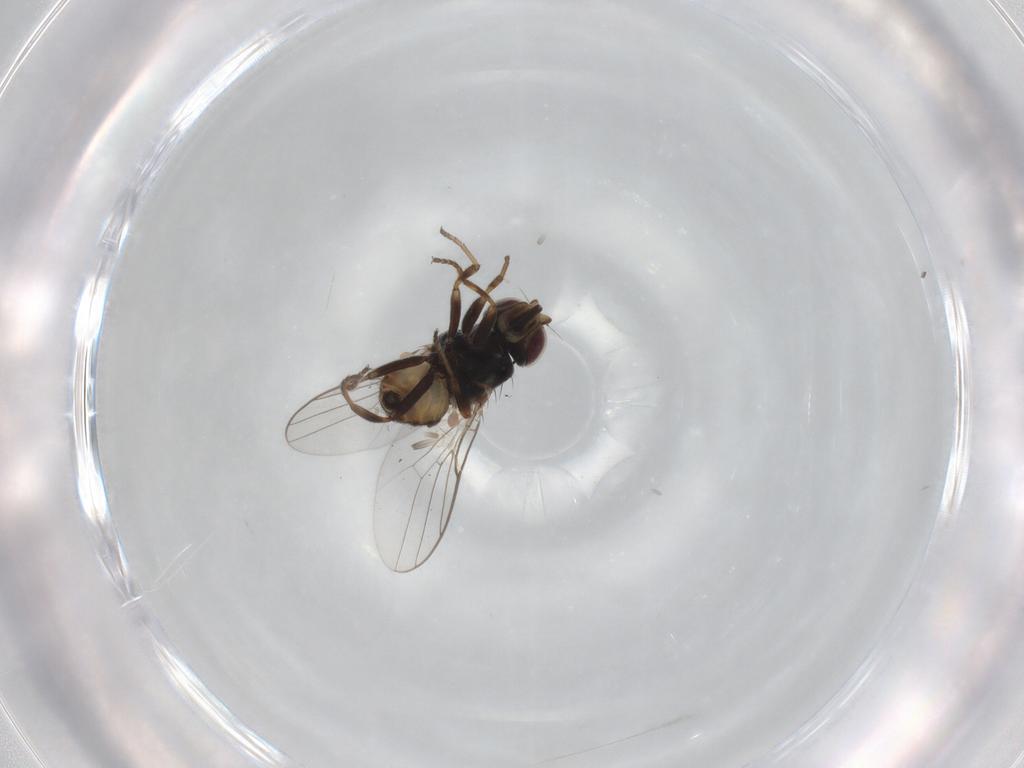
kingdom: Animalia
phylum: Arthropoda
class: Insecta
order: Diptera
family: Chloropidae
